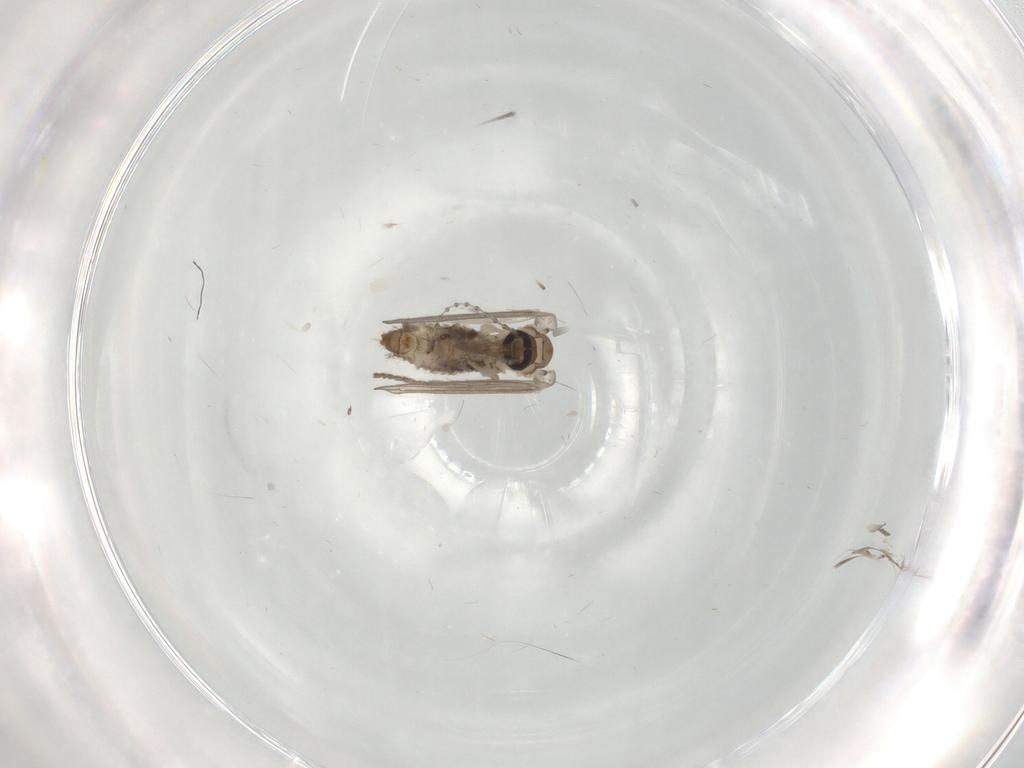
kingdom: Animalia
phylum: Arthropoda
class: Insecta
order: Diptera
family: Psychodidae
